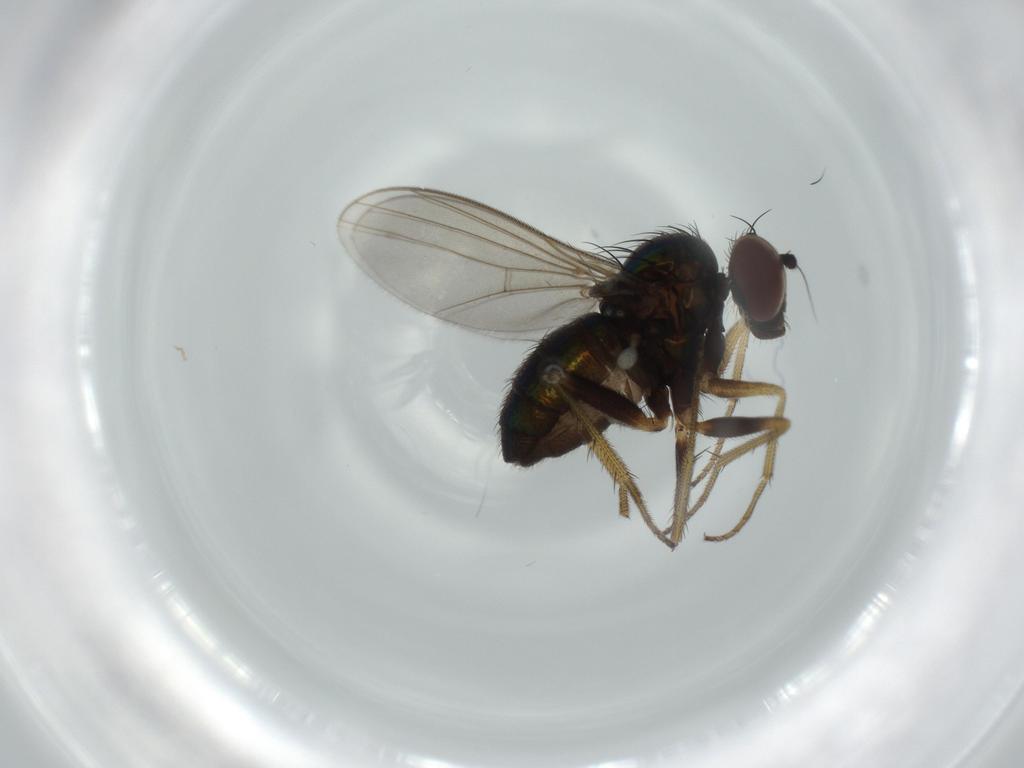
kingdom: Animalia
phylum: Arthropoda
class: Insecta
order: Diptera
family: Dolichopodidae
